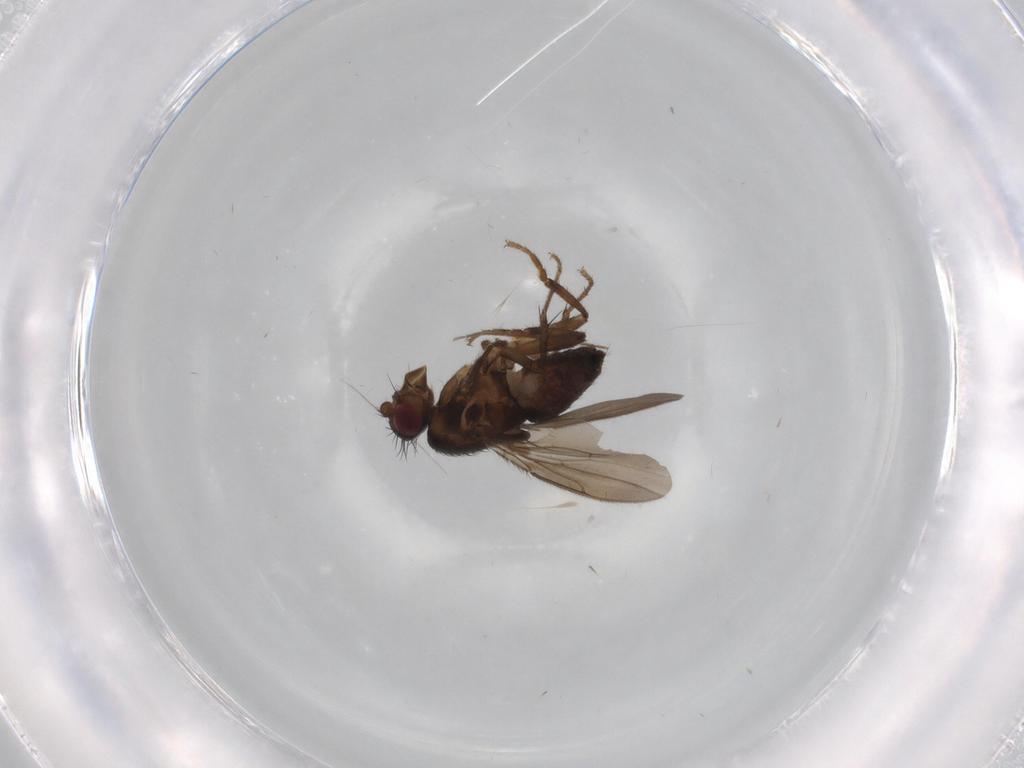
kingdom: Animalia
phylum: Arthropoda
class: Insecta
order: Diptera
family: Sphaeroceridae
